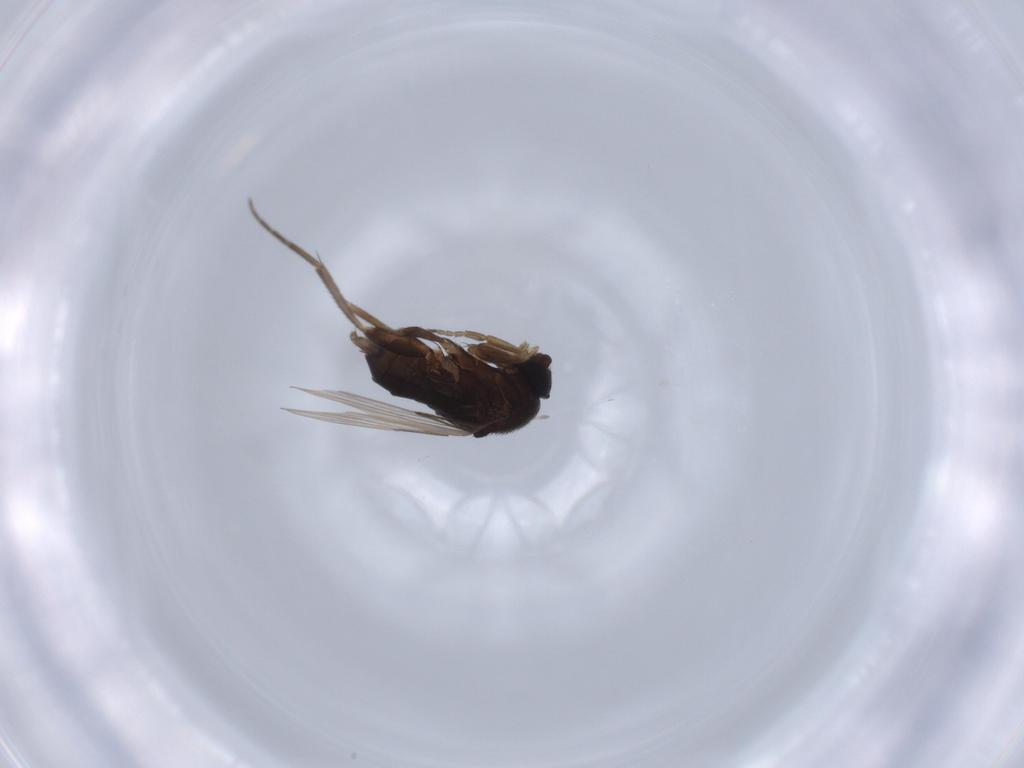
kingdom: Animalia
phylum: Arthropoda
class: Insecta
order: Diptera
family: Phoridae
